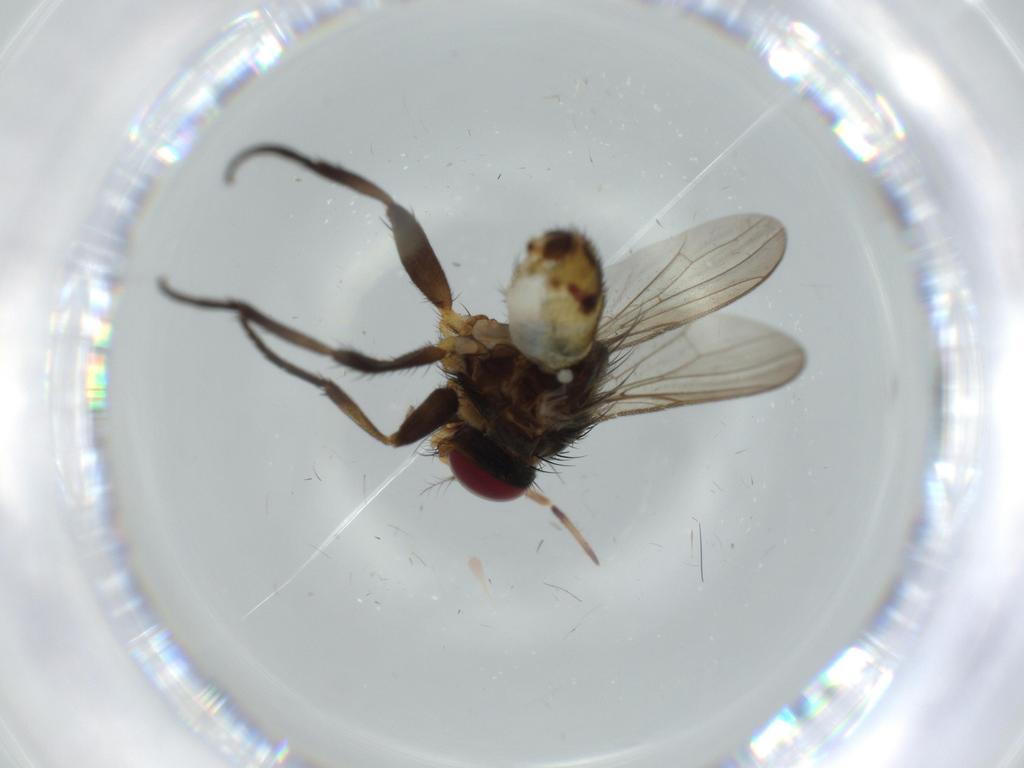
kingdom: Animalia
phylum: Arthropoda
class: Insecta
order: Diptera
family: Anthomyiidae
